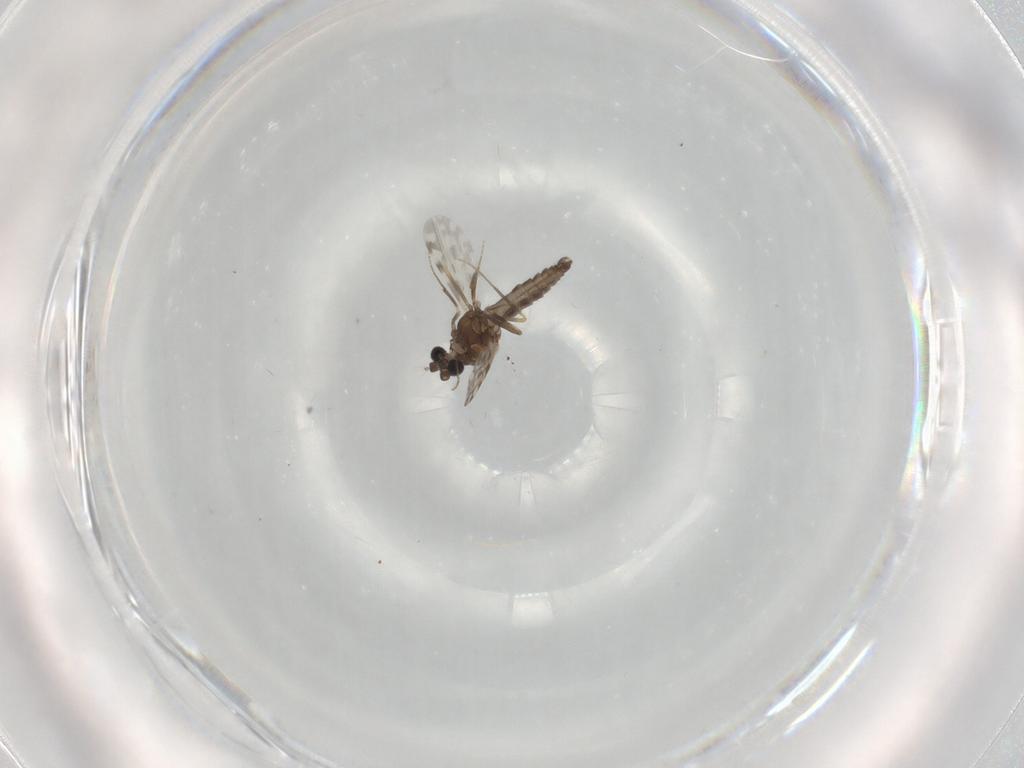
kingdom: Animalia
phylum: Arthropoda
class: Insecta
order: Diptera
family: Ceratopogonidae
